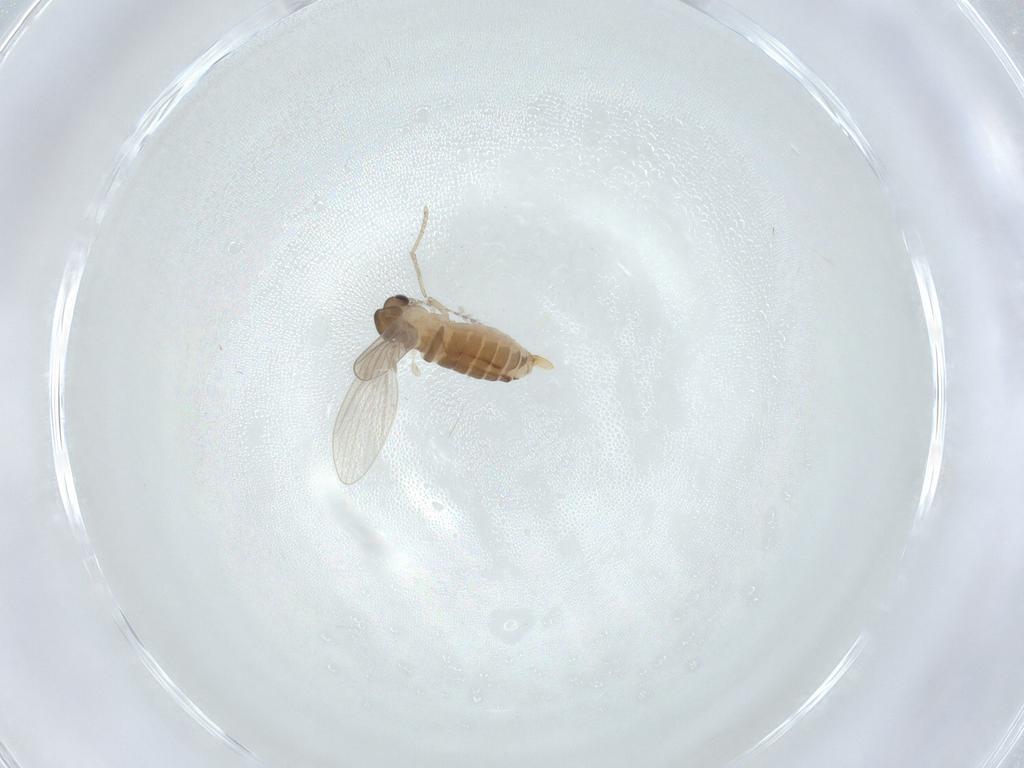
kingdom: Animalia
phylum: Arthropoda
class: Insecta
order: Diptera
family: Psychodidae
